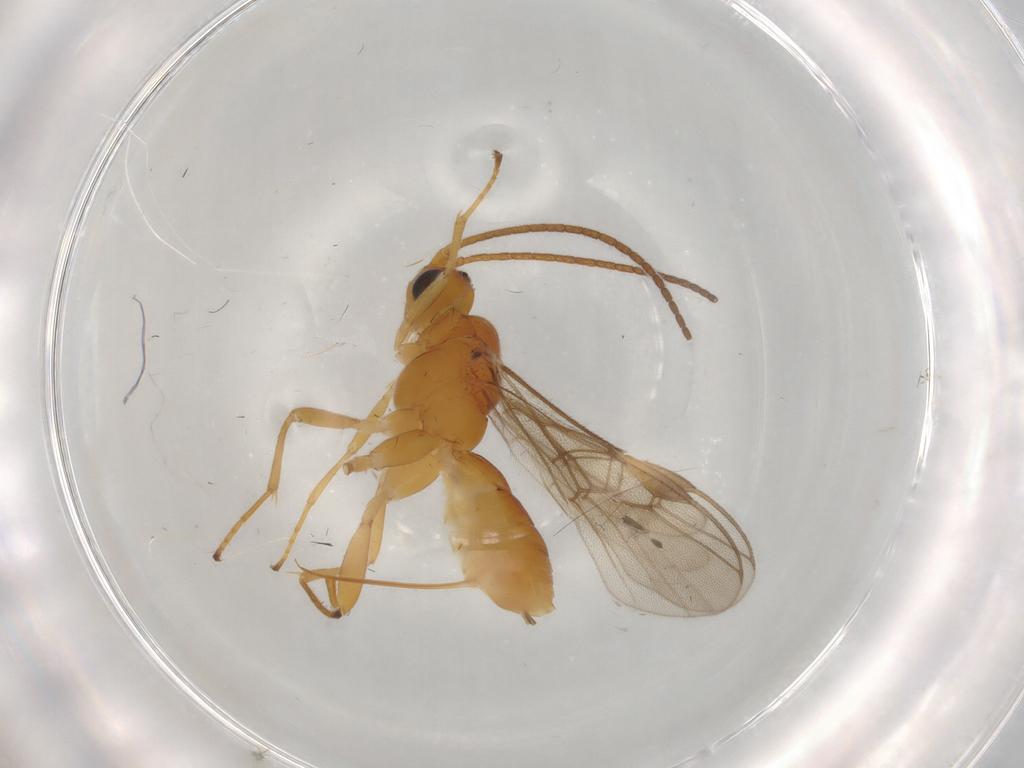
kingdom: Animalia
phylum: Arthropoda
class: Insecta
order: Hymenoptera
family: Braconidae
